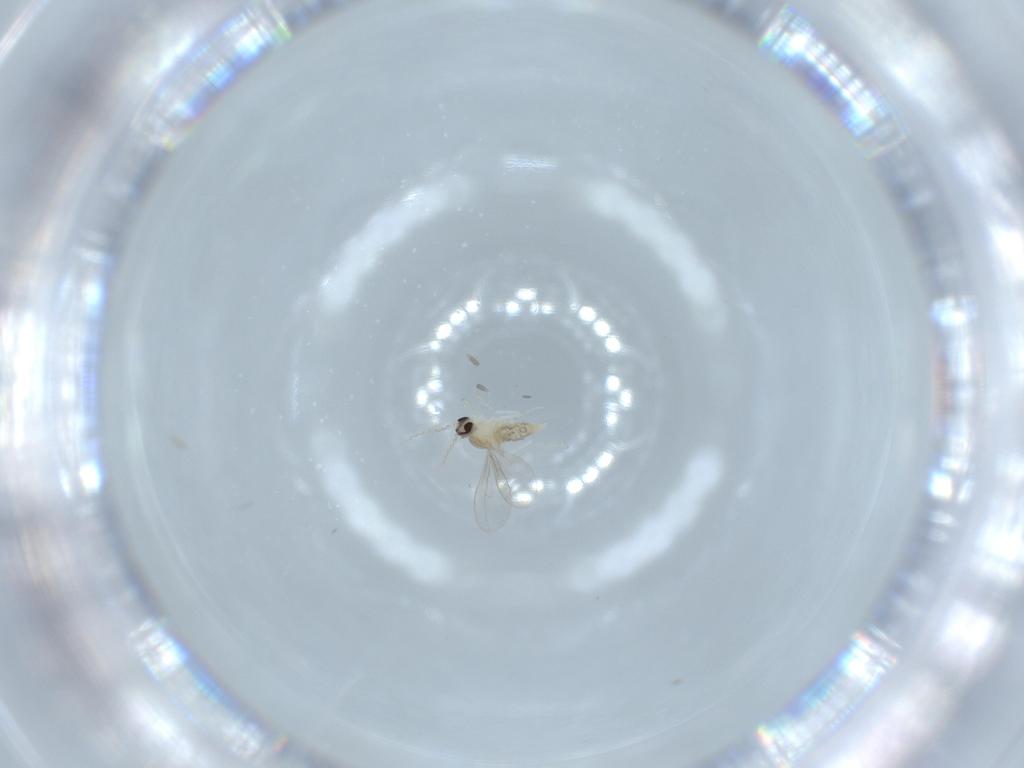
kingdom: Animalia
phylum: Arthropoda
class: Insecta
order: Diptera
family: Cecidomyiidae
